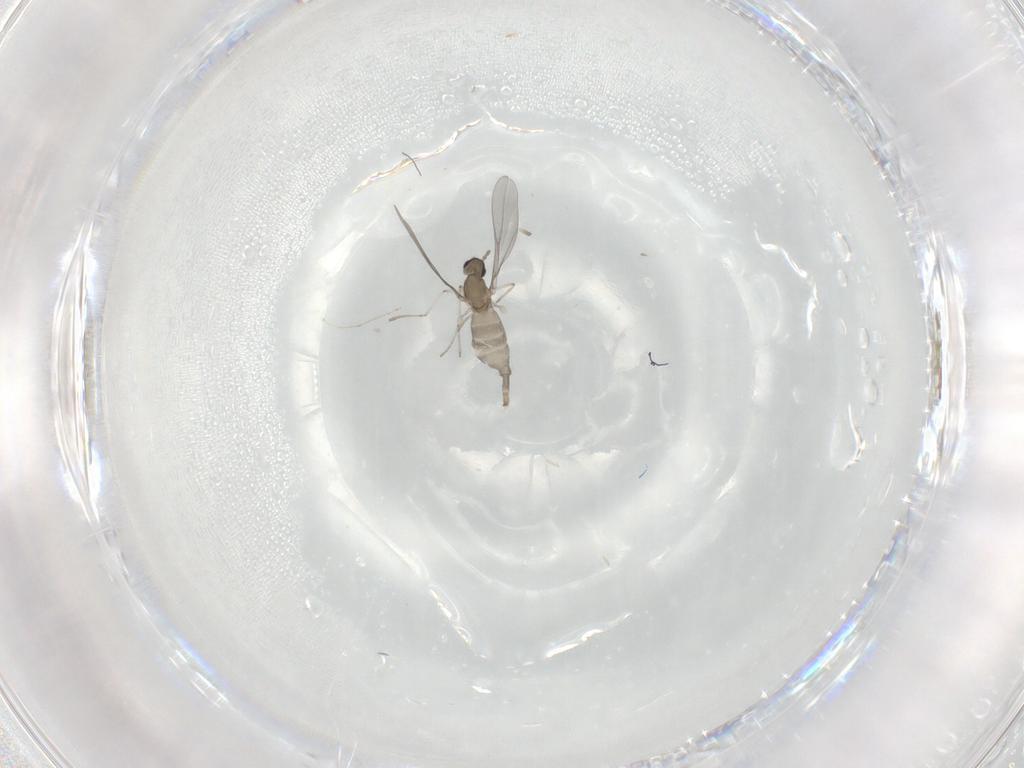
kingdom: Animalia
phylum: Arthropoda
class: Insecta
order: Diptera
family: Cecidomyiidae
